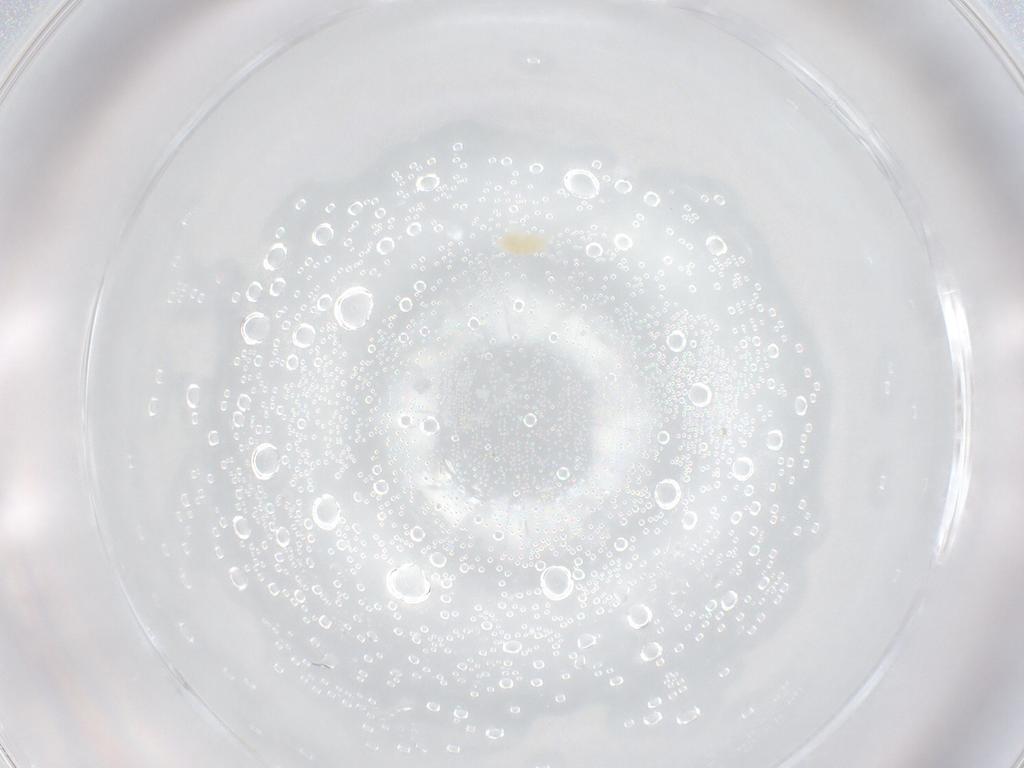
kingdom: Animalia
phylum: Arthropoda
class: Arachnida
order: Trombidiformes
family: Eupodidae
